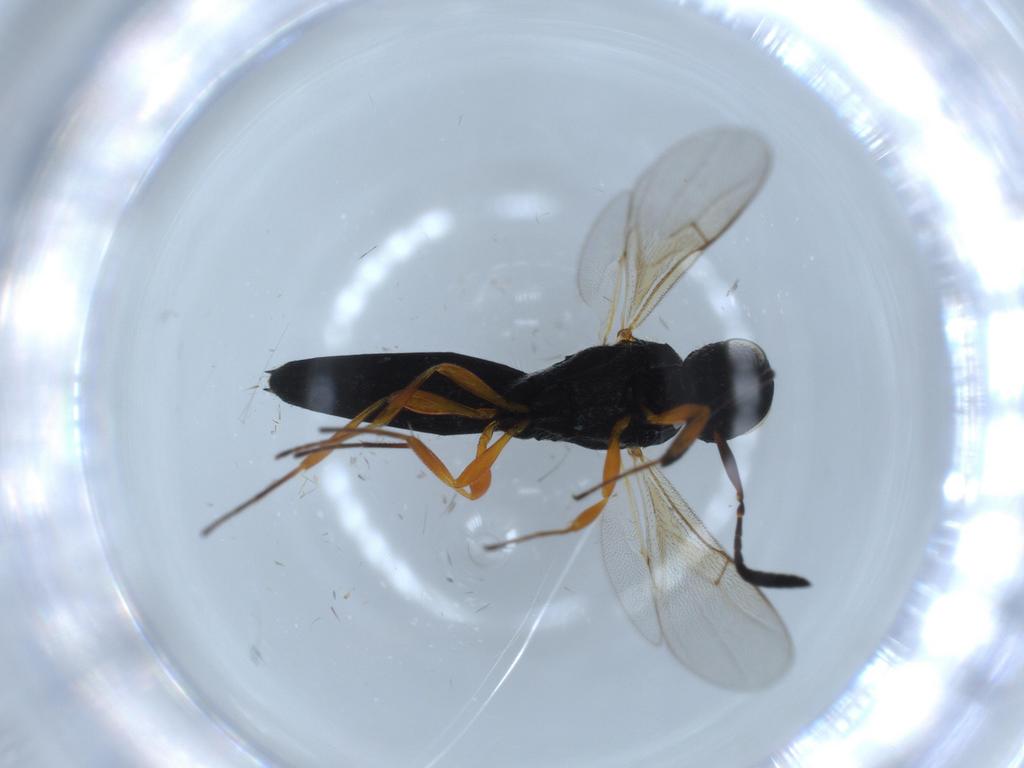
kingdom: Animalia
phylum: Arthropoda
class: Insecta
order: Hymenoptera
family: Scelionidae
